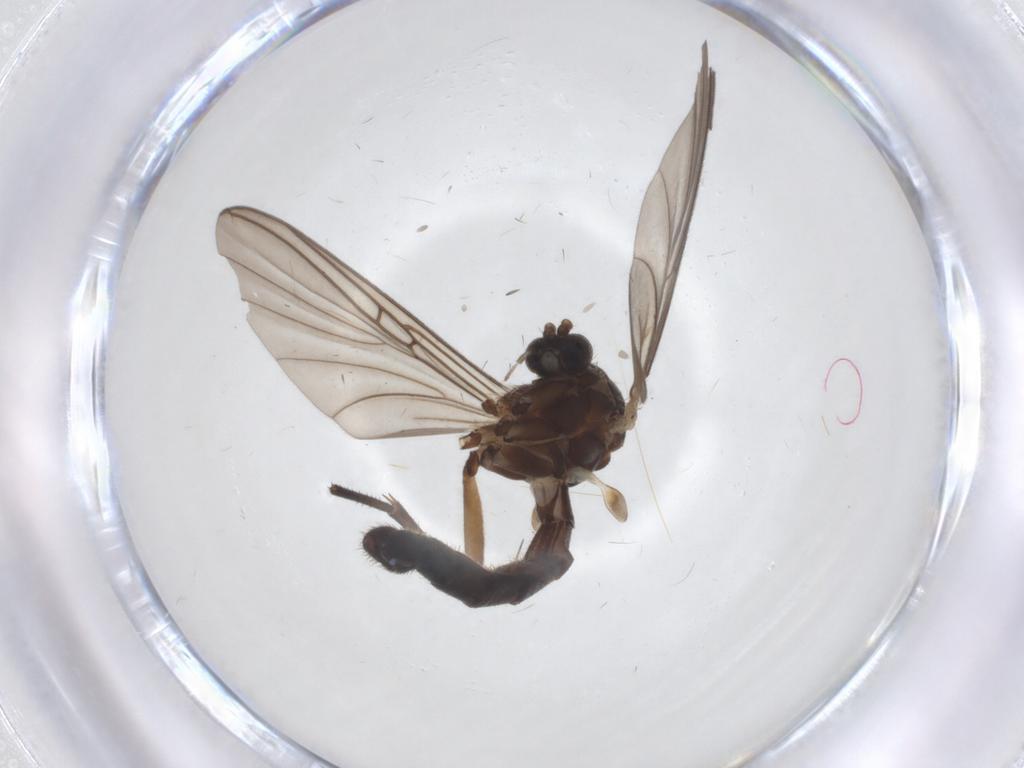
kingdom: Animalia
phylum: Arthropoda
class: Insecta
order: Diptera
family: Mycetophilidae
